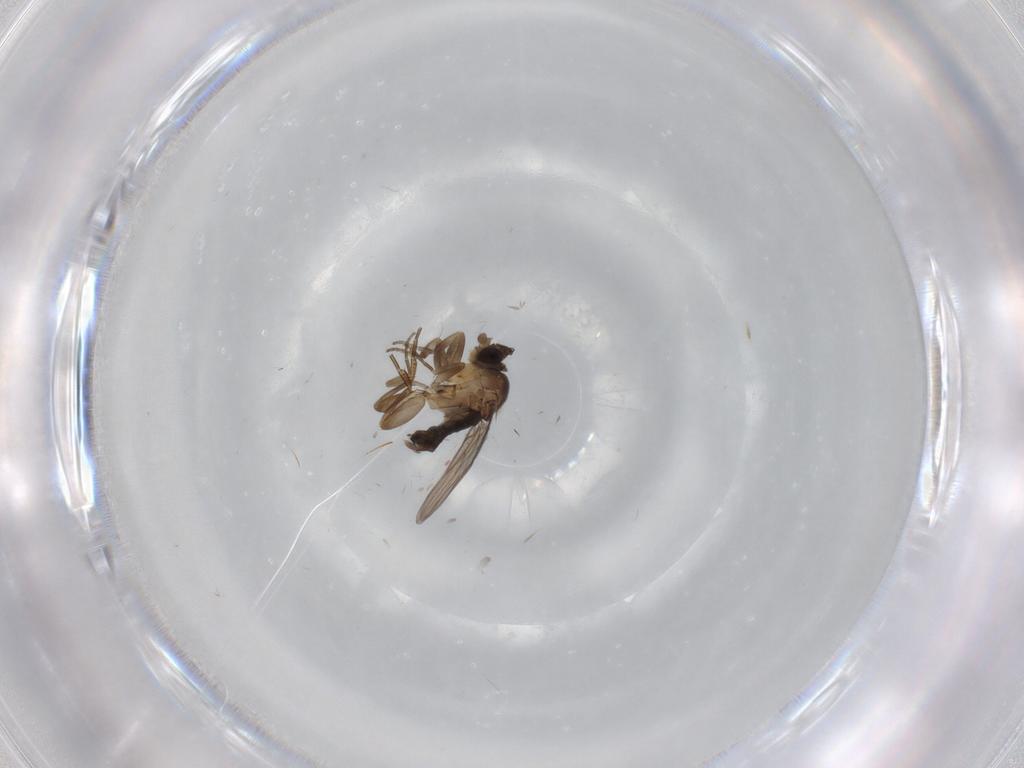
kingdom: Animalia
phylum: Arthropoda
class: Insecta
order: Diptera
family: Phoridae
